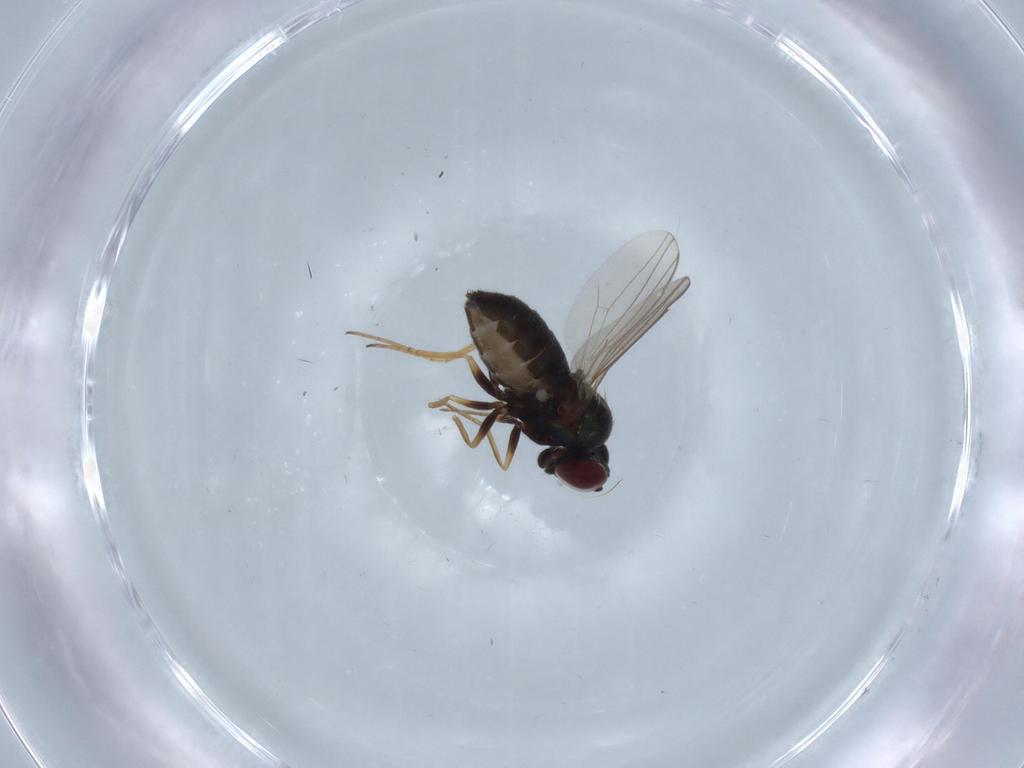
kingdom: Animalia
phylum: Arthropoda
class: Insecta
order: Diptera
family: Dolichopodidae
